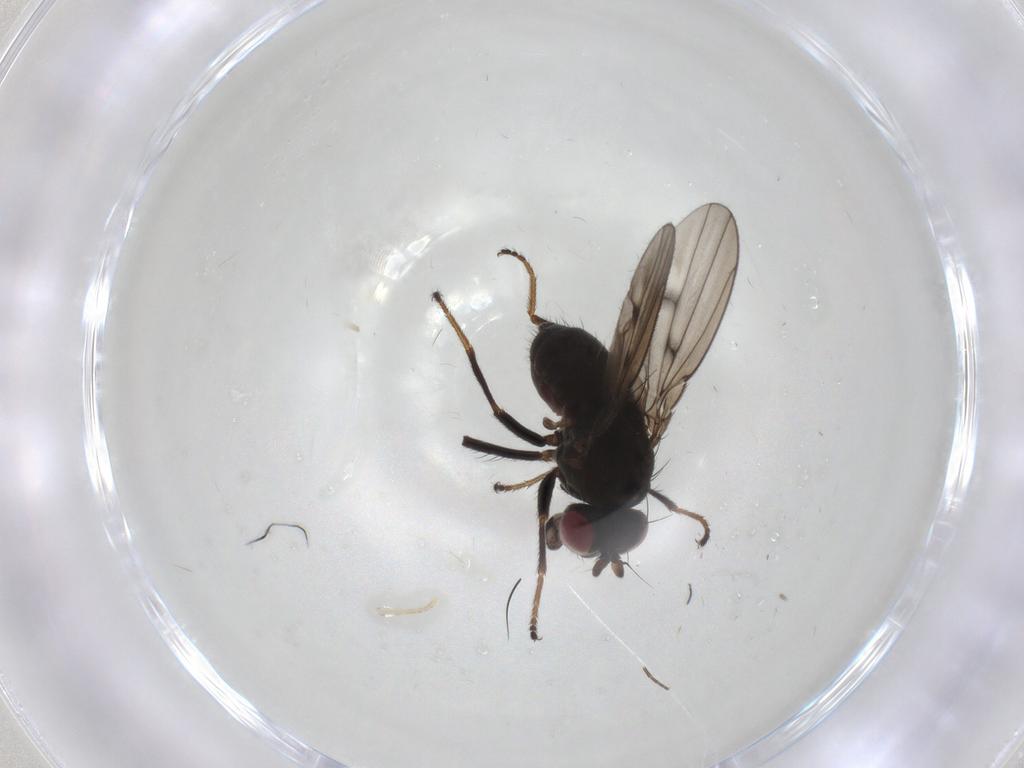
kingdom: Animalia
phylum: Arthropoda
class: Insecta
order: Diptera
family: Ephydridae
